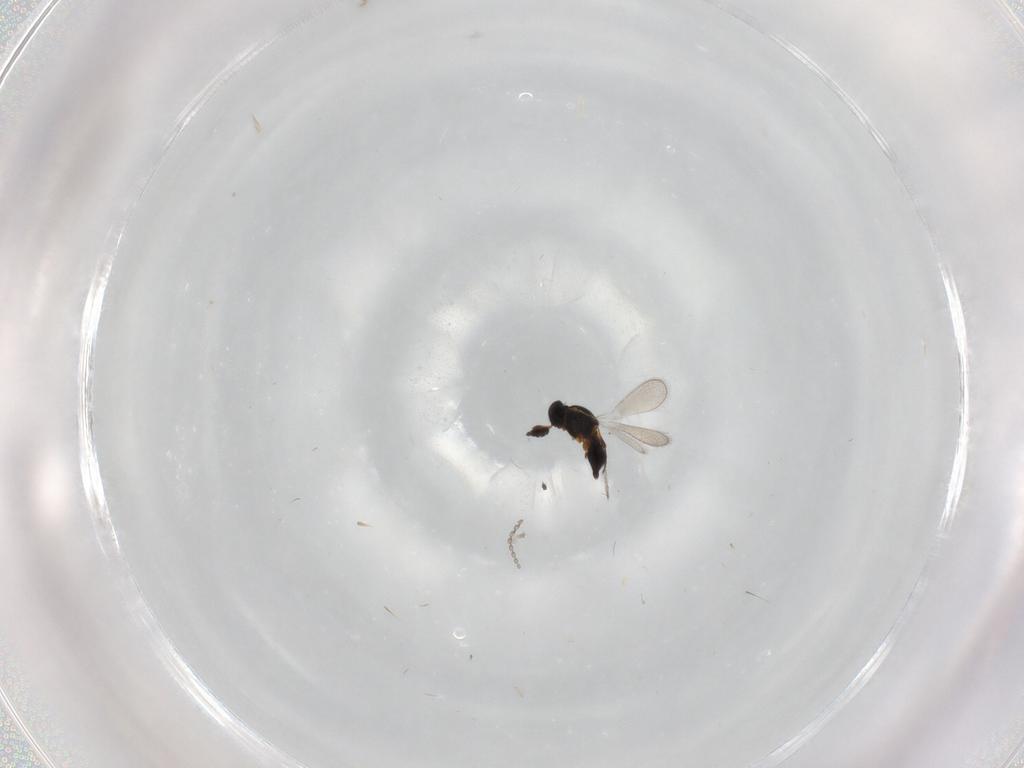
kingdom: Animalia
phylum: Arthropoda
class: Insecta
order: Hymenoptera
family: Platygastridae
